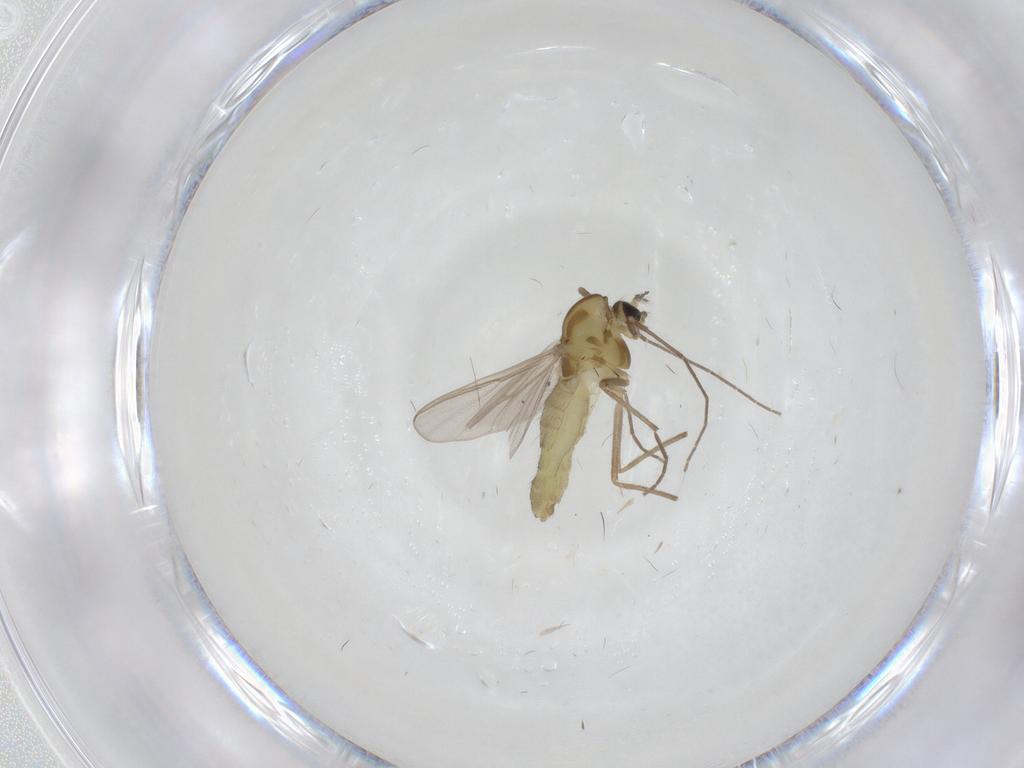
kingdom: Animalia
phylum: Arthropoda
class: Insecta
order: Diptera
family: Chironomidae
